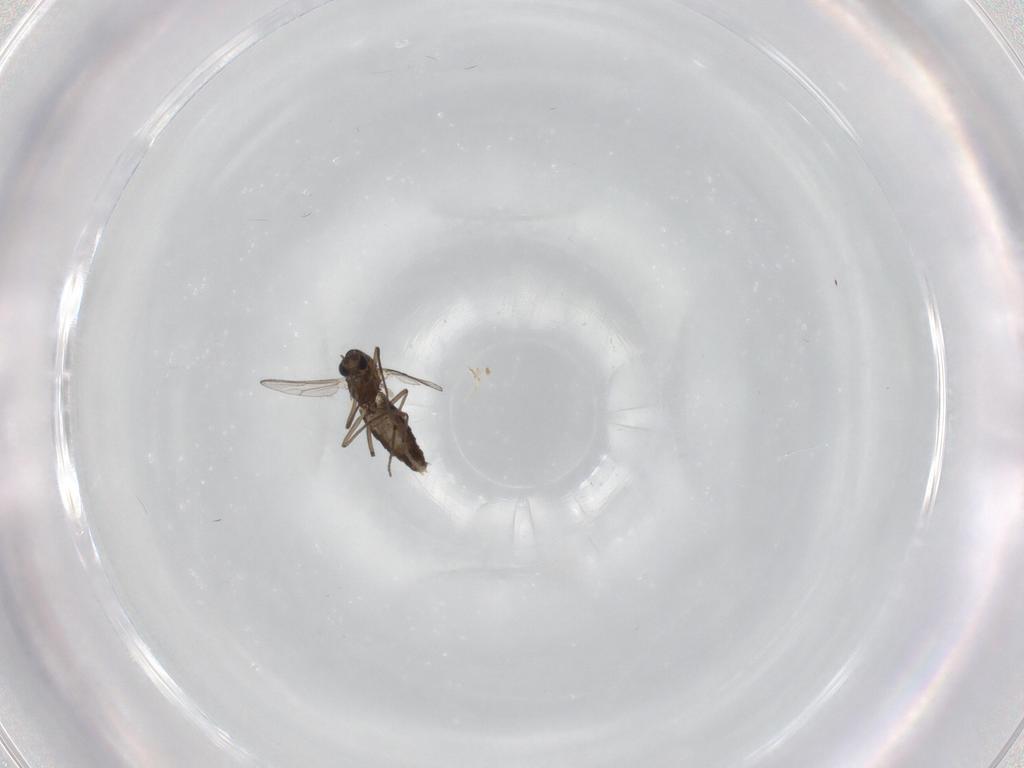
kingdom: Animalia
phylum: Arthropoda
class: Insecta
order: Diptera
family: Chironomidae
